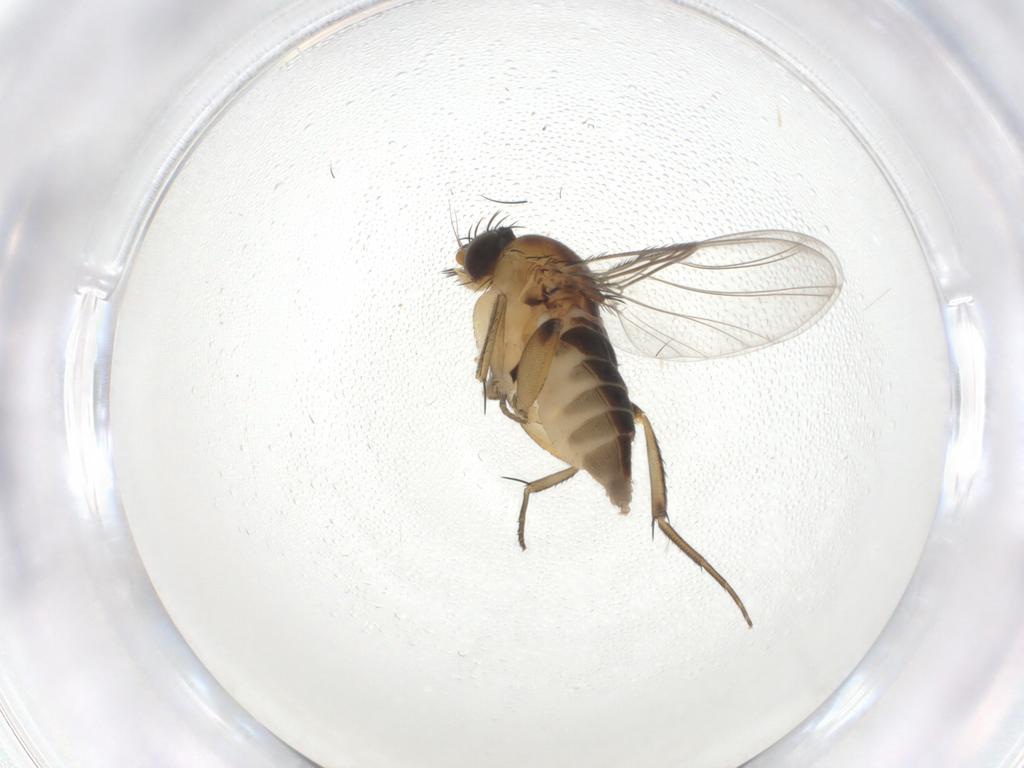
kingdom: Animalia
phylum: Arthropoda
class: Insecta
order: Diptera
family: Phoridae
